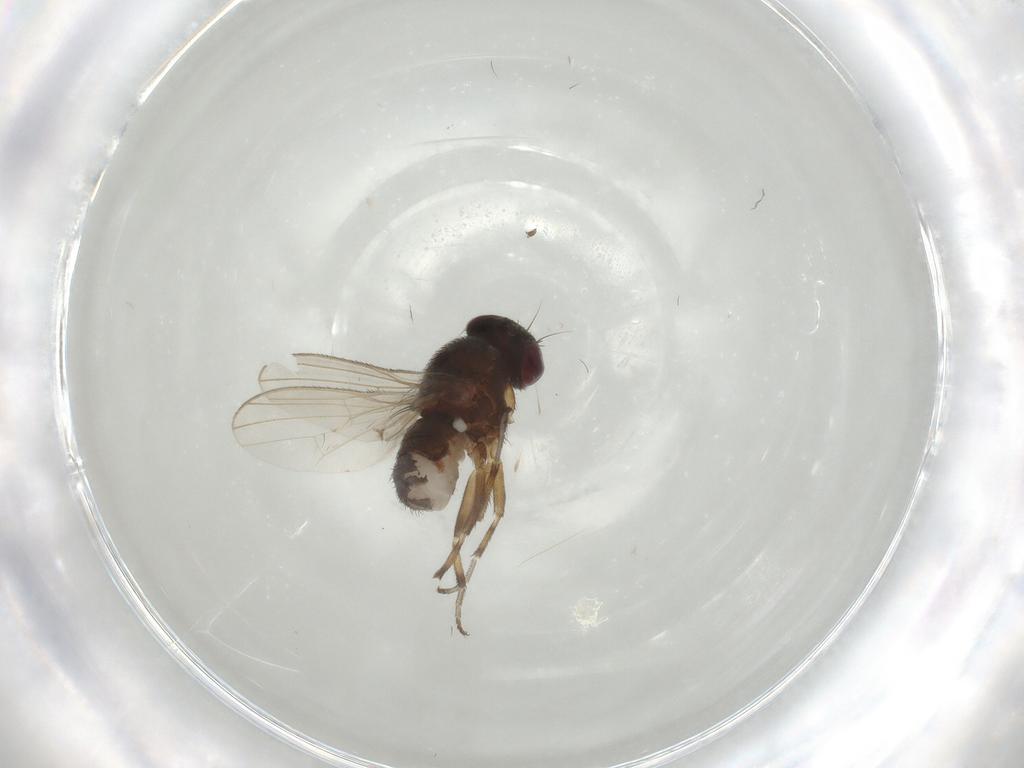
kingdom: Animalia
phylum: Arthropoda
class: Insecta
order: Diptera
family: Heleomyzidae
